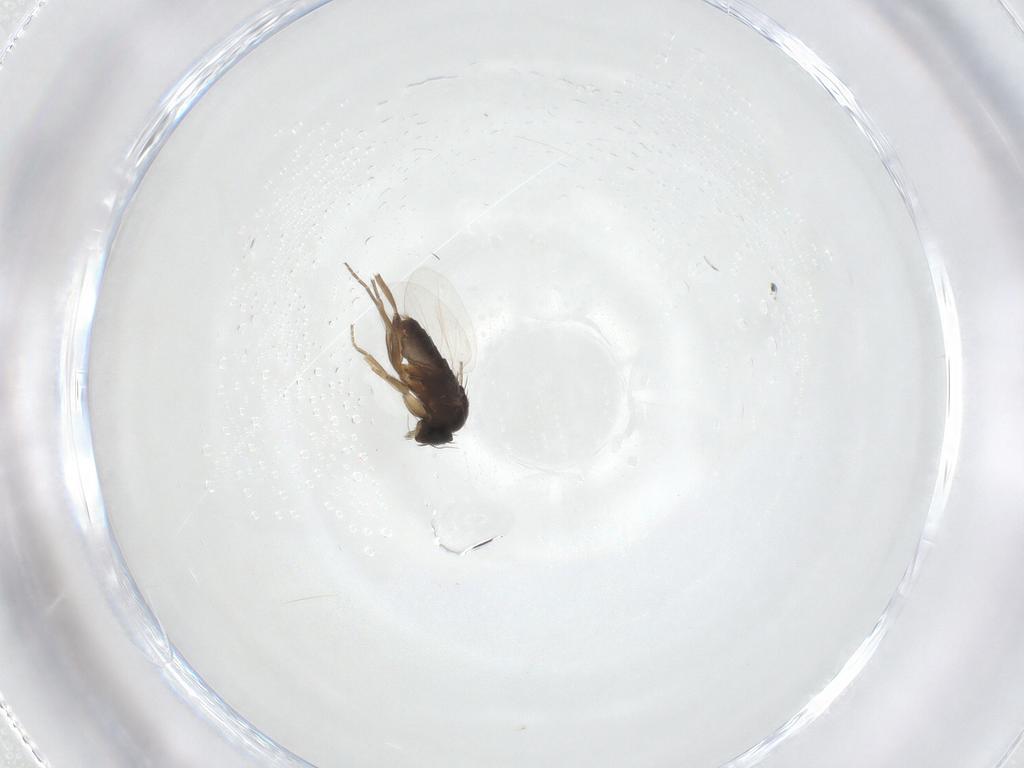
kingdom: Animalia
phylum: Arthropoda
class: Insecta
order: Diptera
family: Phoridae
